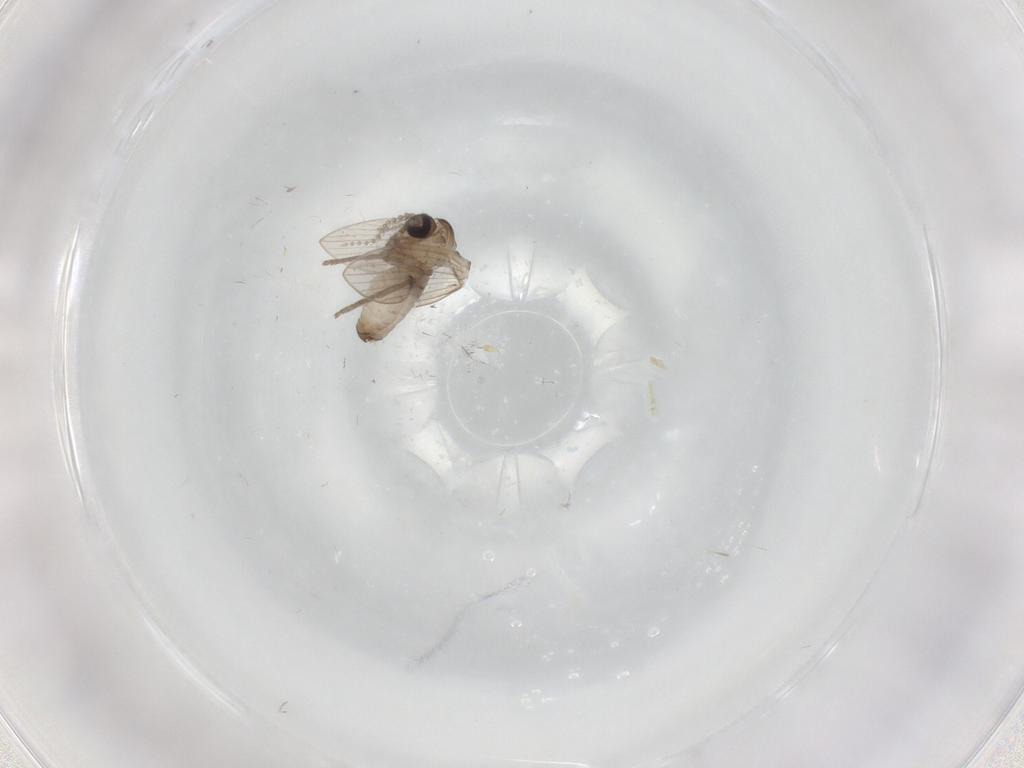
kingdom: Animalia
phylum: Arthropoda
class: Insecta
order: Diptera
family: Psychodidae
